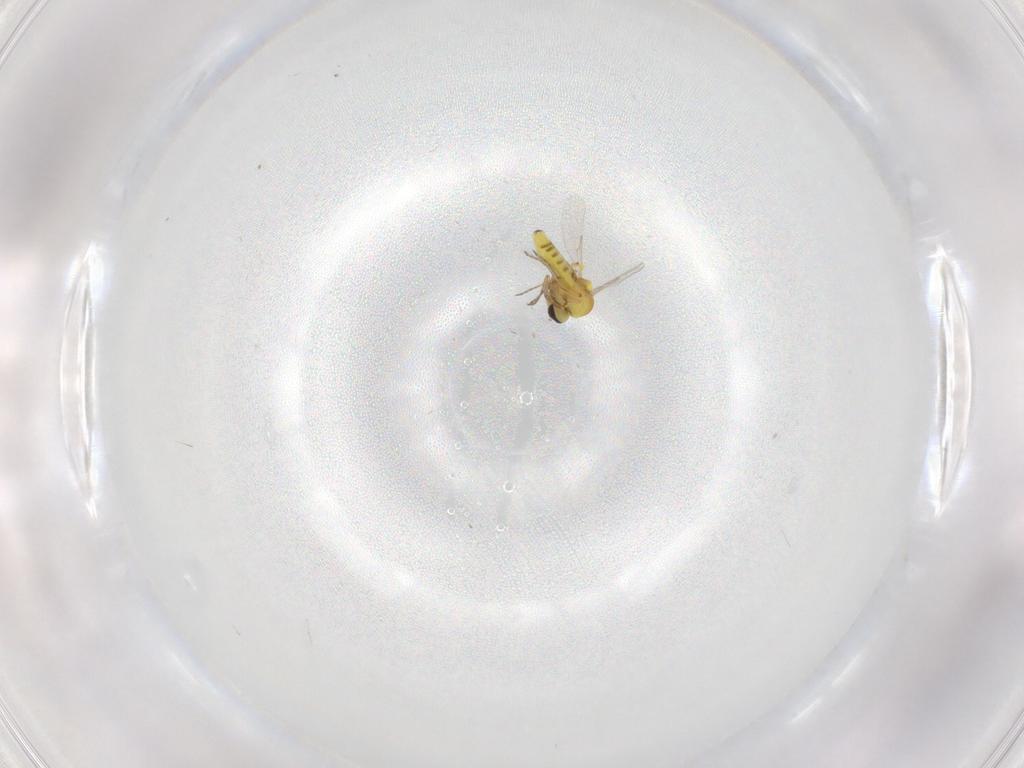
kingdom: Animalia
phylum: Arthropoda
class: Insecta
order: Diptera
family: Ceratopogonidae
